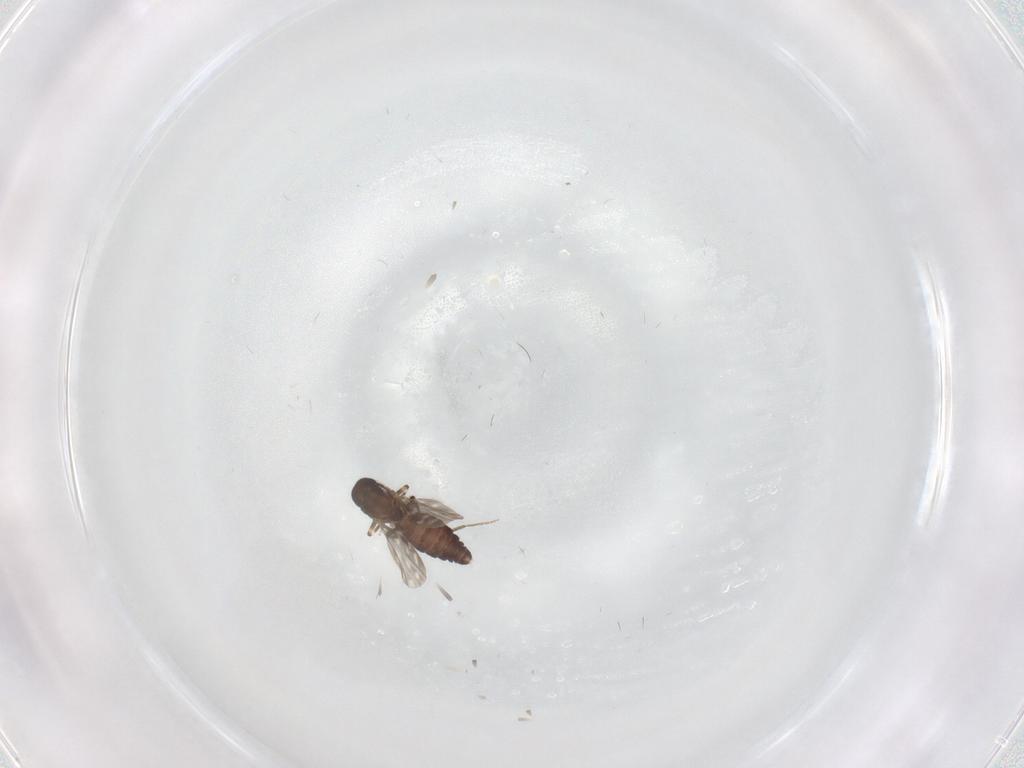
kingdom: Animalia
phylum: Arthropoda
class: Insecta
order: Diptera
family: Ceratopogonidae
